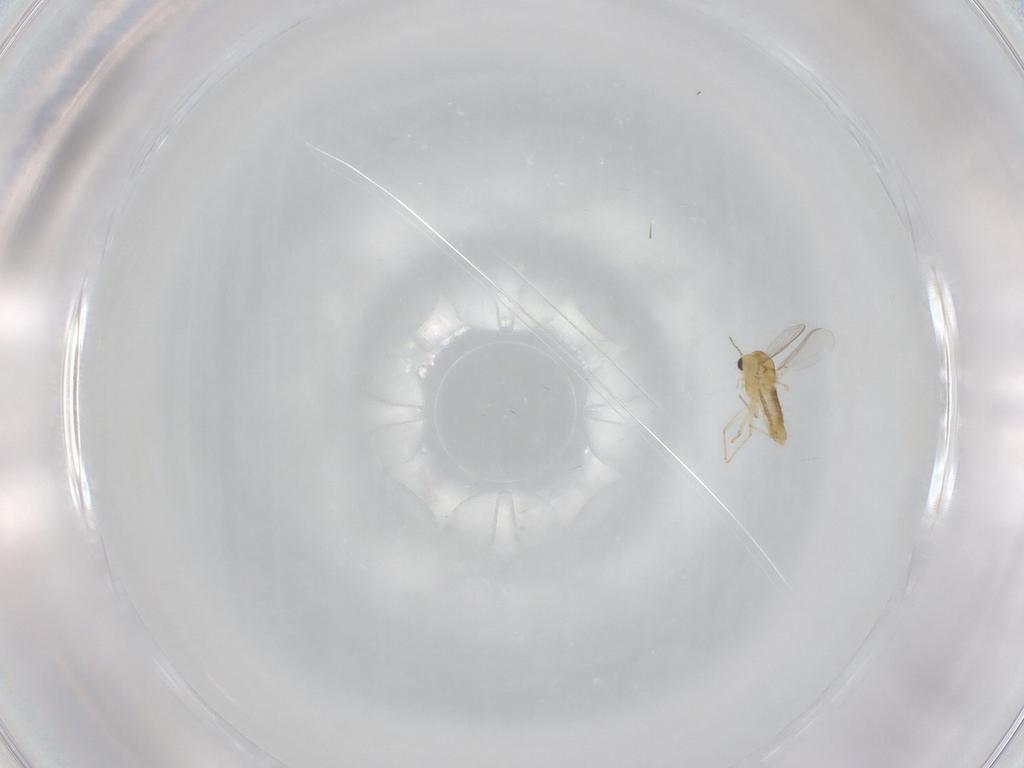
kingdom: Animalia
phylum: Arthropoda
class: Insecta
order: Diptera
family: Chironomidae
